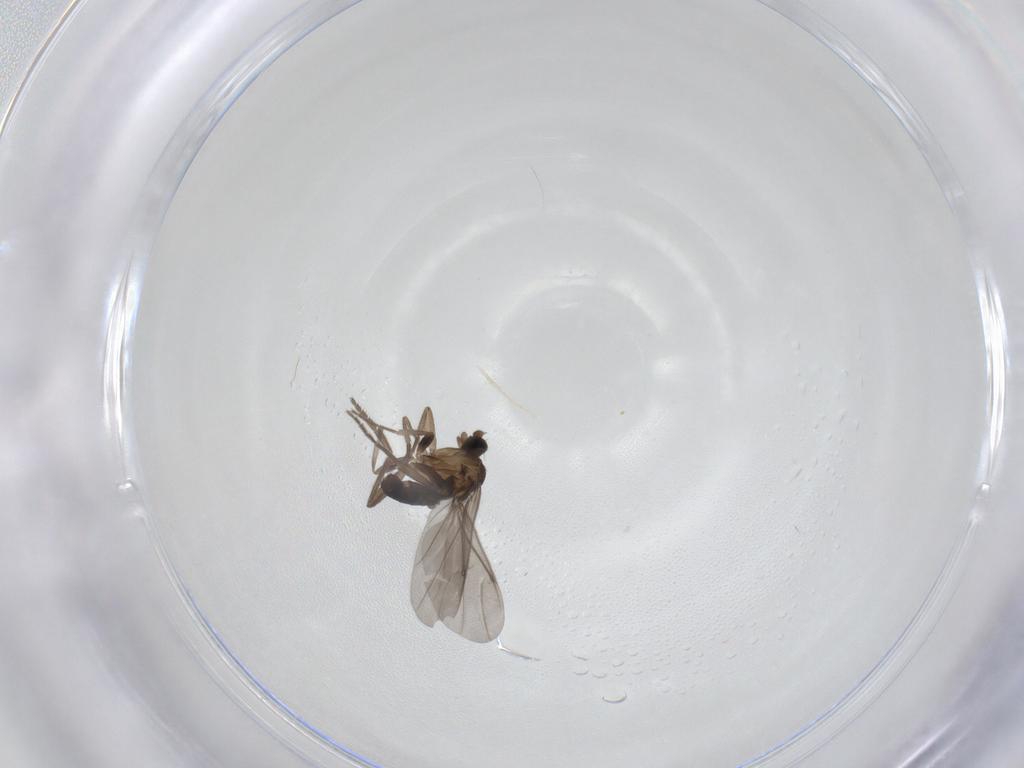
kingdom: Animalia
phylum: Arthropoda
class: Insecta
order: Diptera
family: Phoridae
